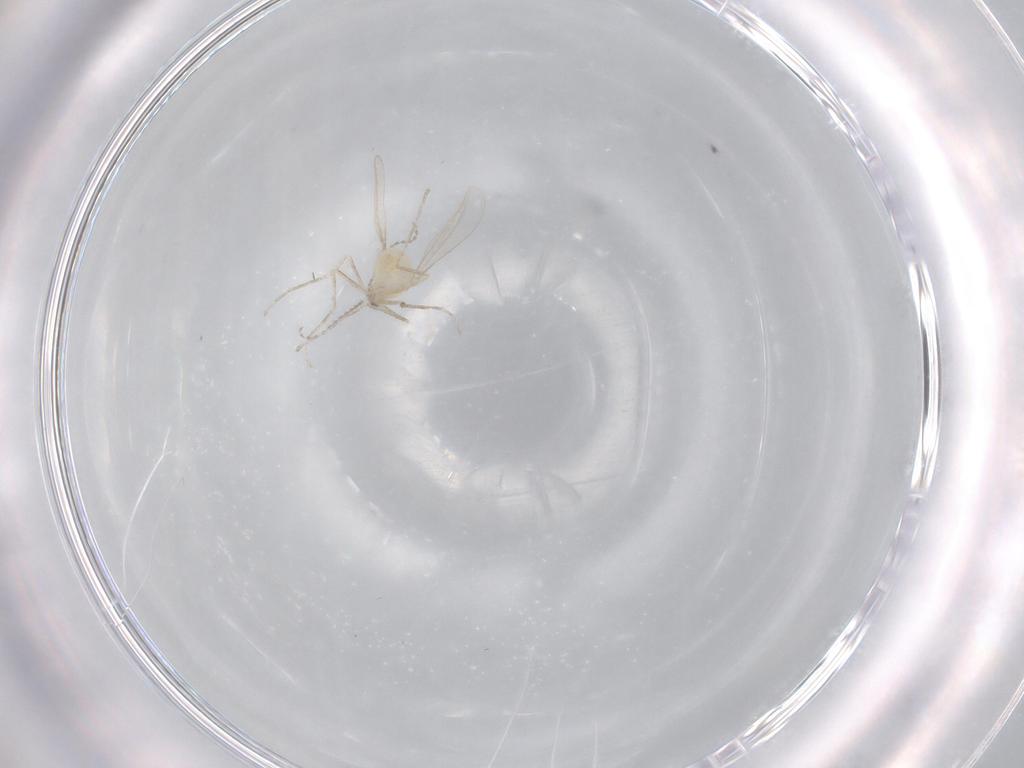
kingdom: Animalia
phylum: Arthropoda
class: Insecta
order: Diptera
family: Cecidomyiidae
